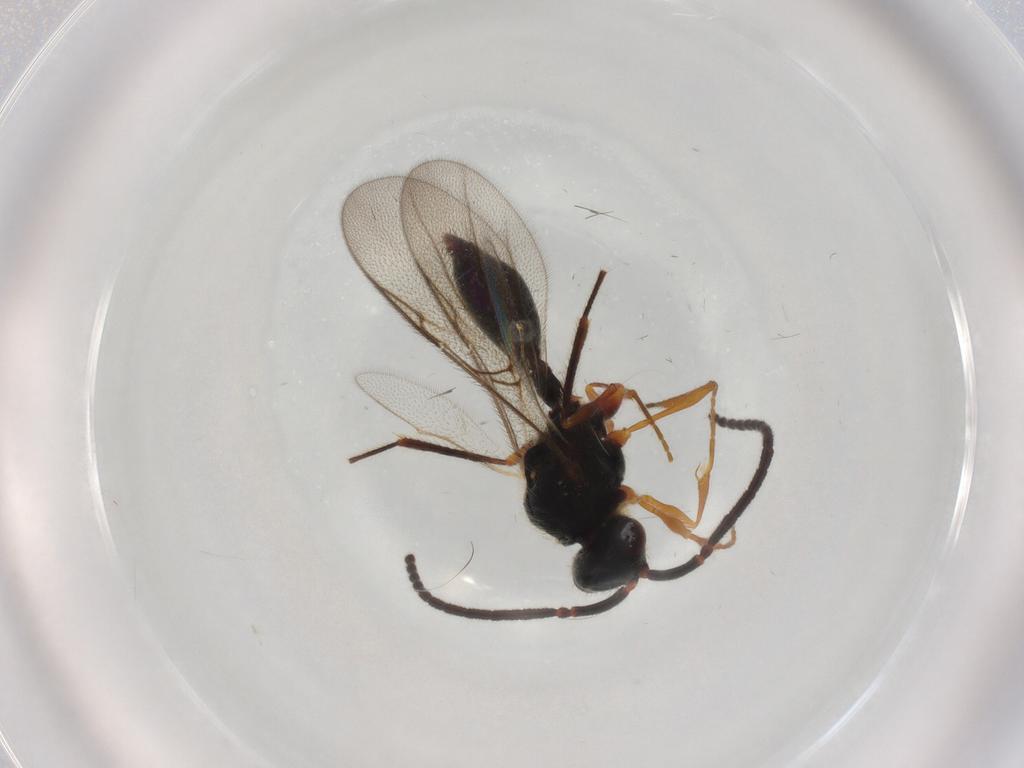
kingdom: Animalia
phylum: Arthropoda
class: Insecta
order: Hymenoptera
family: Diapriidae
